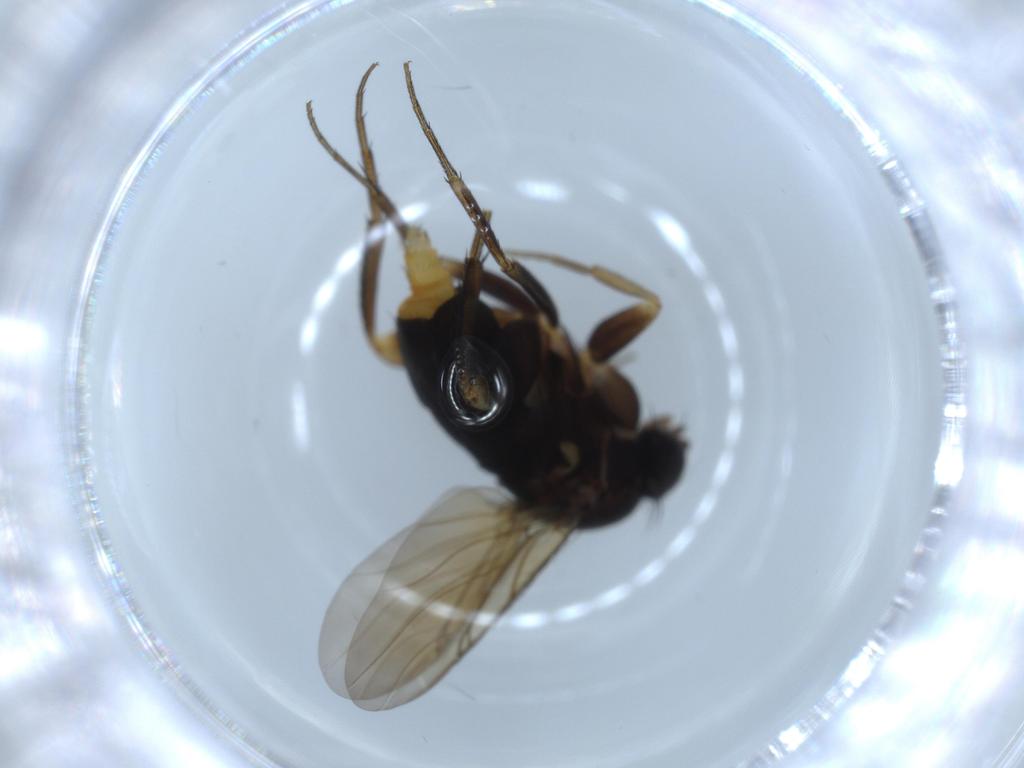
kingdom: Animalia
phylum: Arthropoda
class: Insecta
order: Diptera
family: Phoridae
